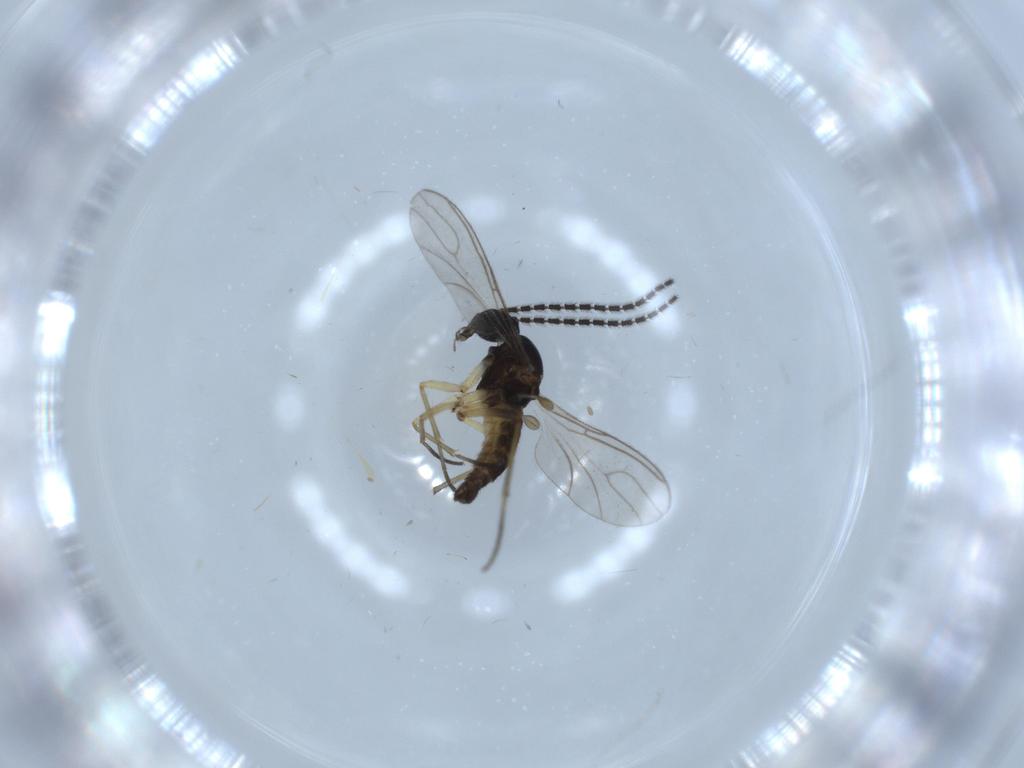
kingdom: Animalia
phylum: Arthropoda
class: Insecta
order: Diptera
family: Sciaridae
